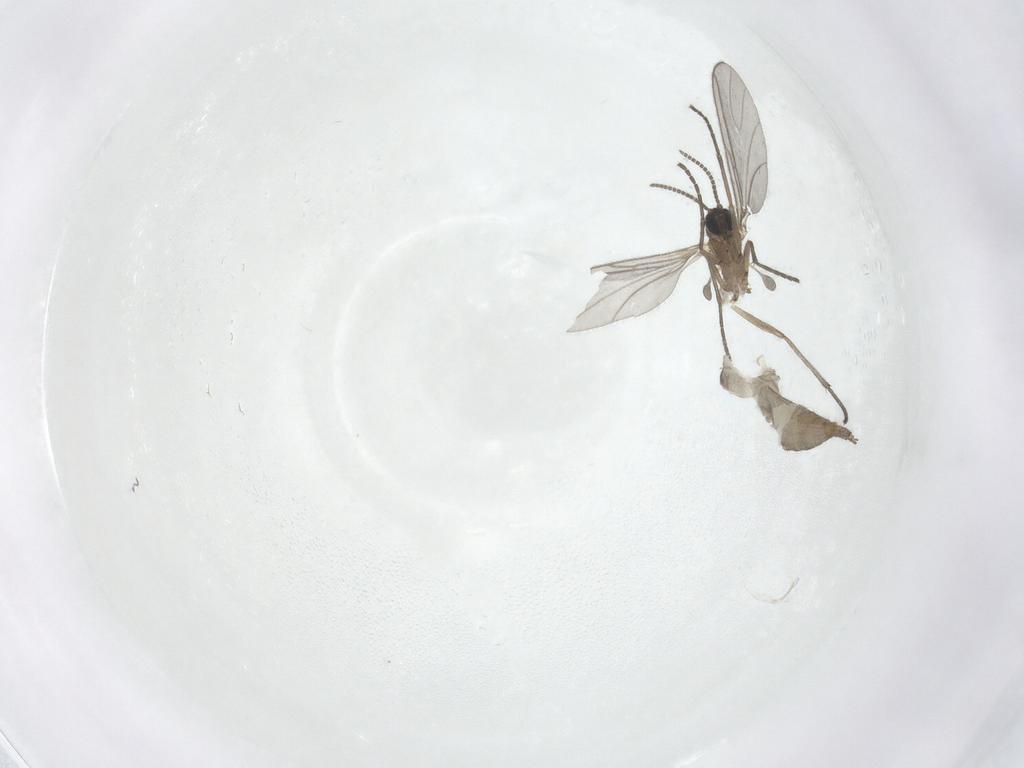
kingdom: Animalia
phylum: Arthropoda
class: Insecta
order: Diptera
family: Sciaridae
